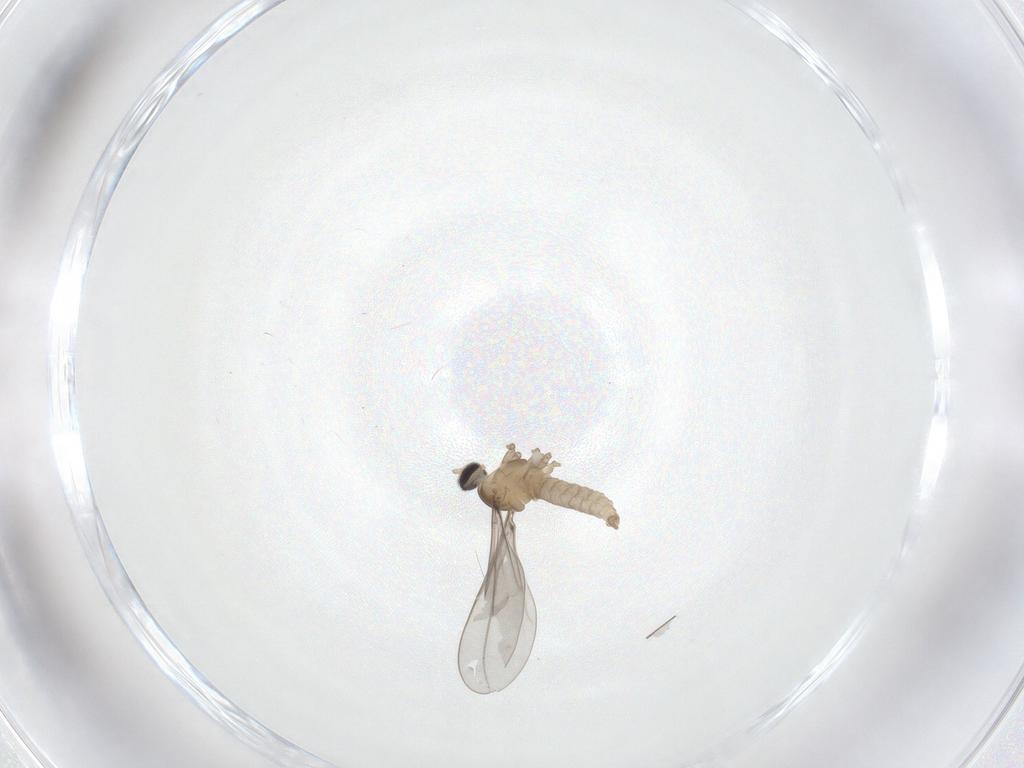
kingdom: Animalia
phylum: Arthropoda
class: Insecta
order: Diptera
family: Cecidomyiidae
